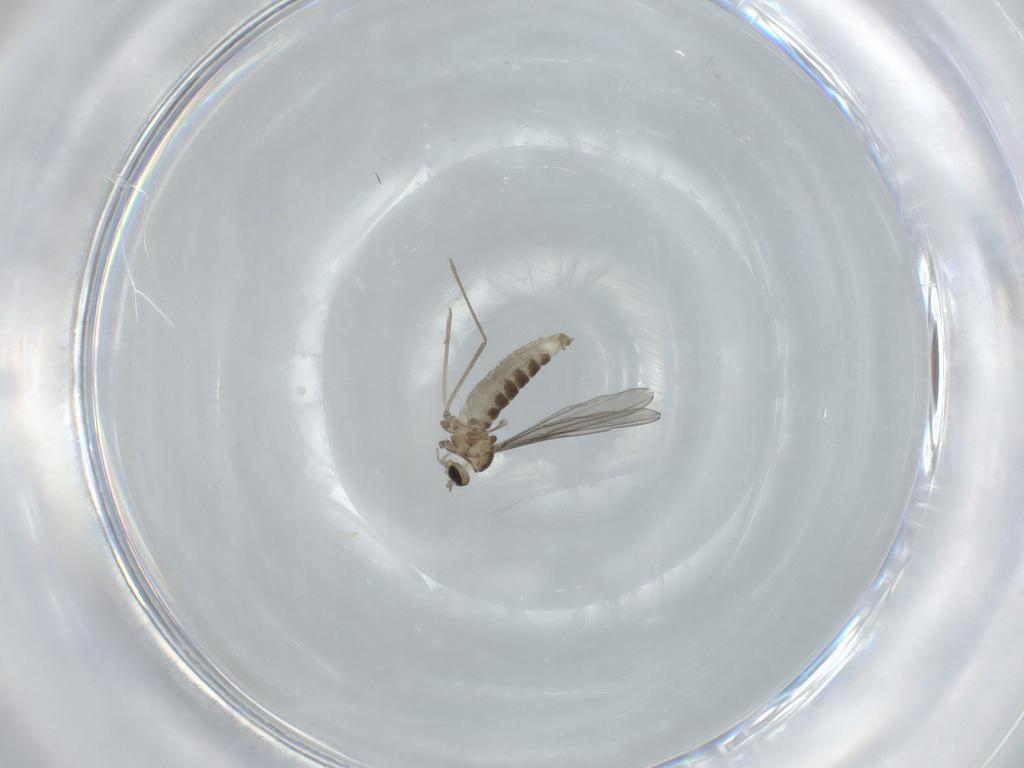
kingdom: Animalia
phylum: Arthropoda
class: Insecta
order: Diptera
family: Cecidomyiidae
